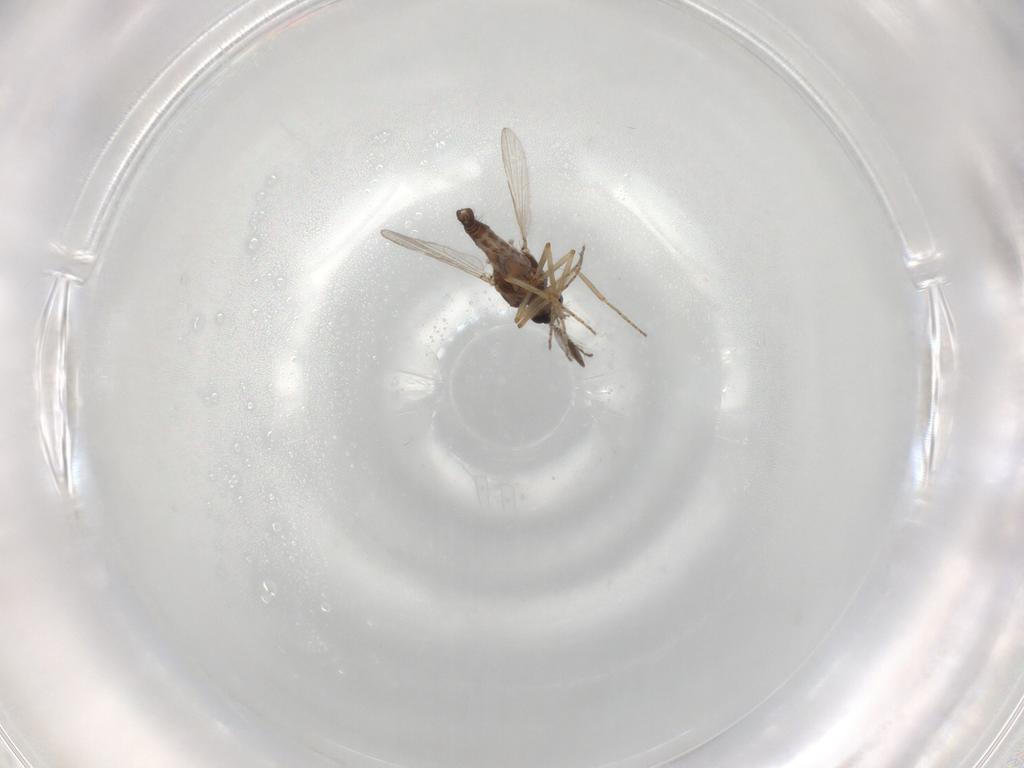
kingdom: Animalia
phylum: Arthropoda
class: Insecta
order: Diptera
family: Ceratopogonidae
